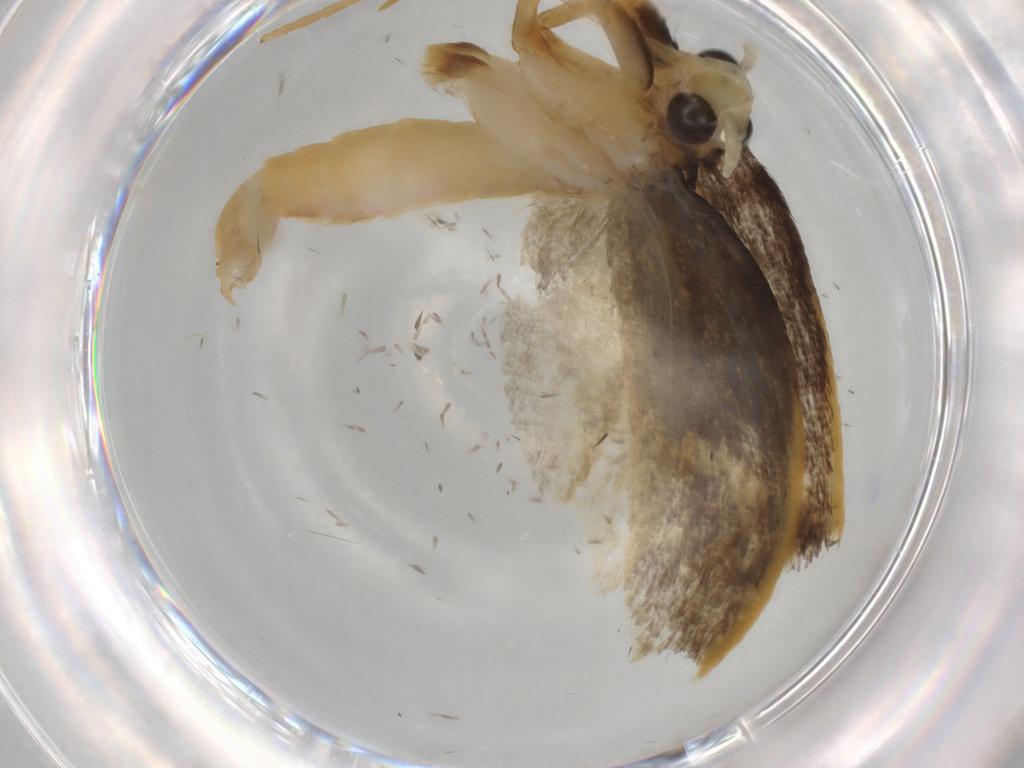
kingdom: Animalia
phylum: Arthropoda
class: Insecta
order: Lepidoptera
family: Lecithoceridae
